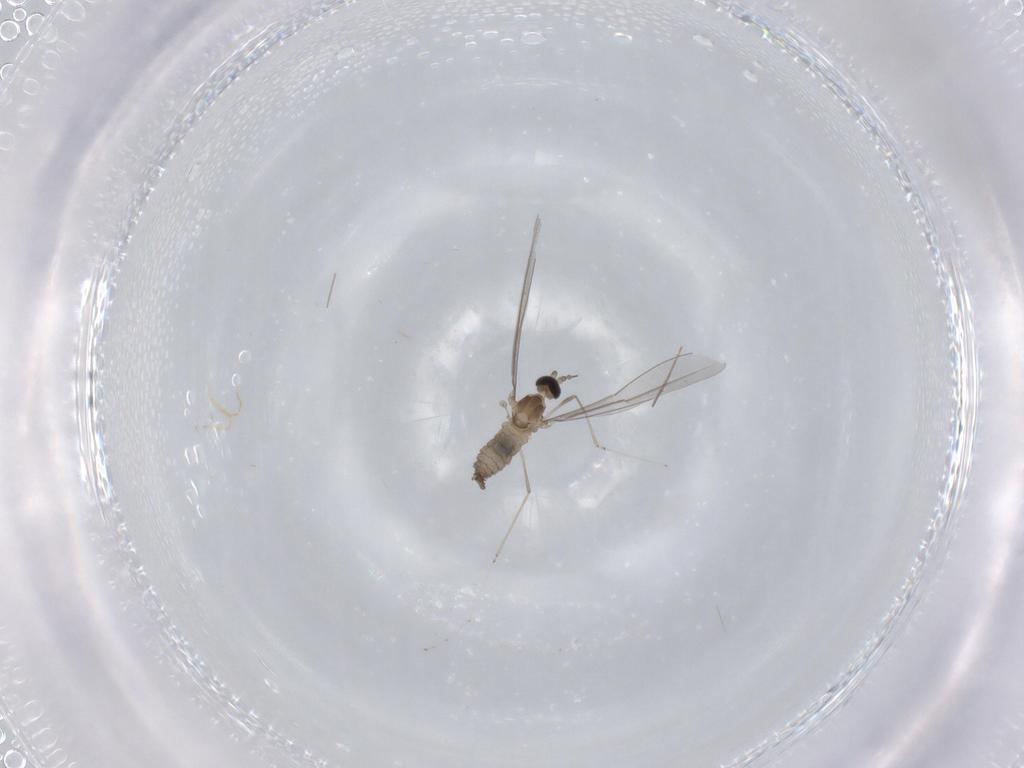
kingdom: Animalia
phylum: Arthropoda
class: Insecta
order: Diptera
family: Cecidomyiidae
